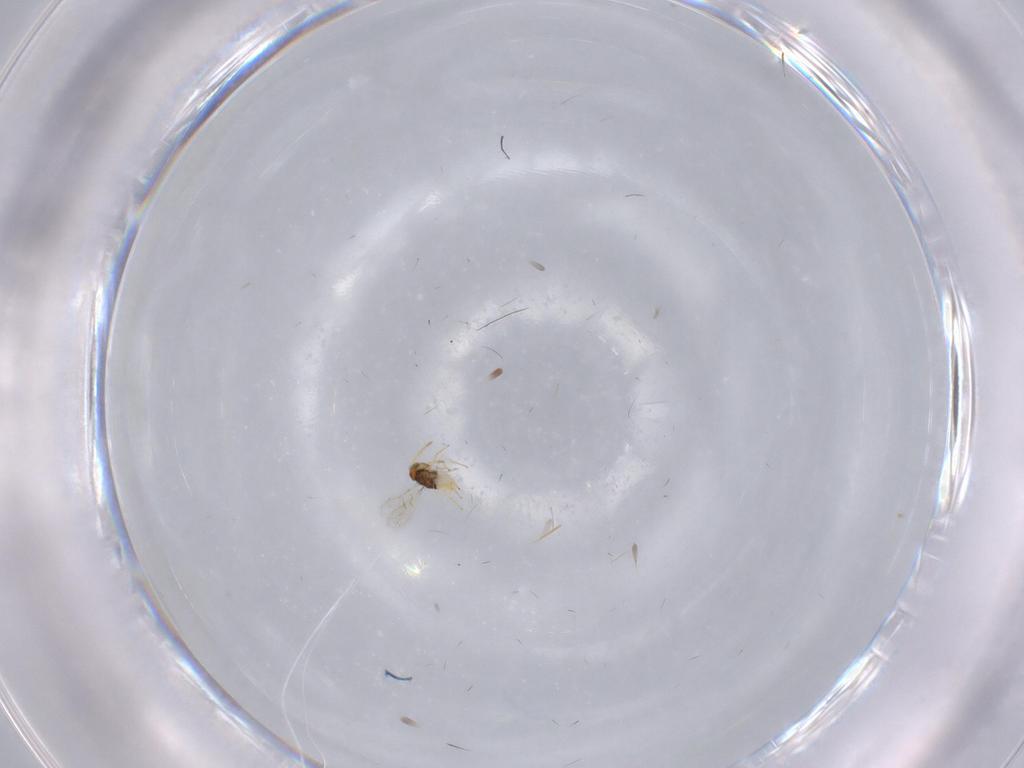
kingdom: Animalia
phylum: Arthropoda
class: Insecta
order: Hymenoptera
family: Aphelinidae
